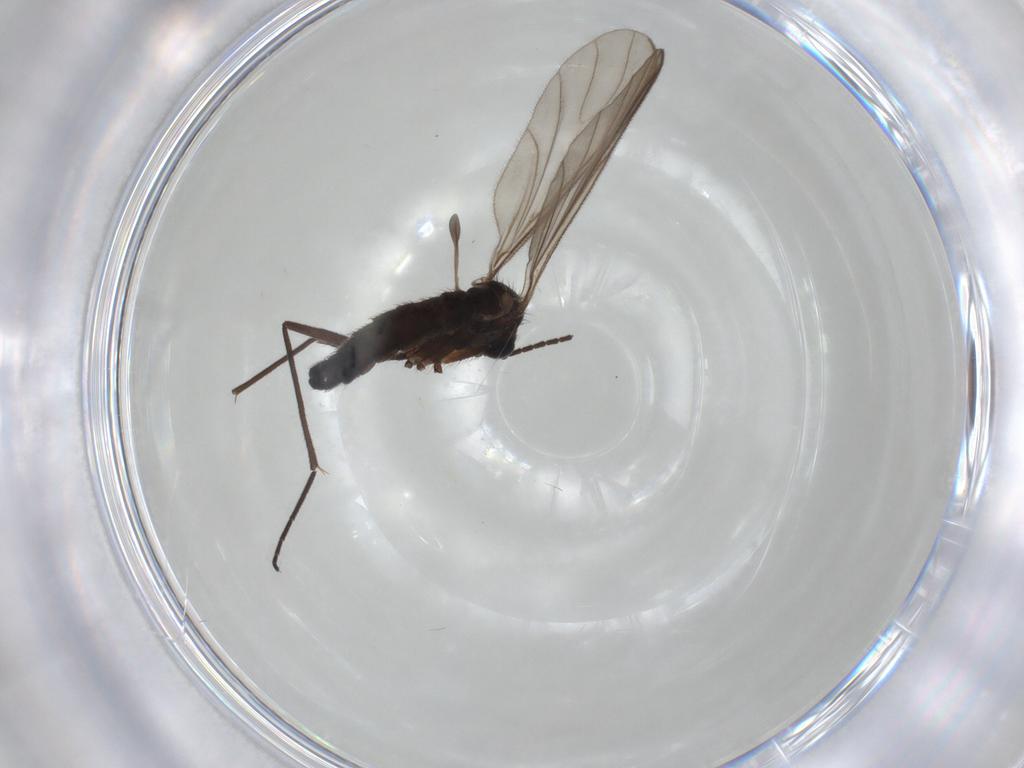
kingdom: Animalia
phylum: Arthropoda
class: Insecta
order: Diptera
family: Sciaridae
